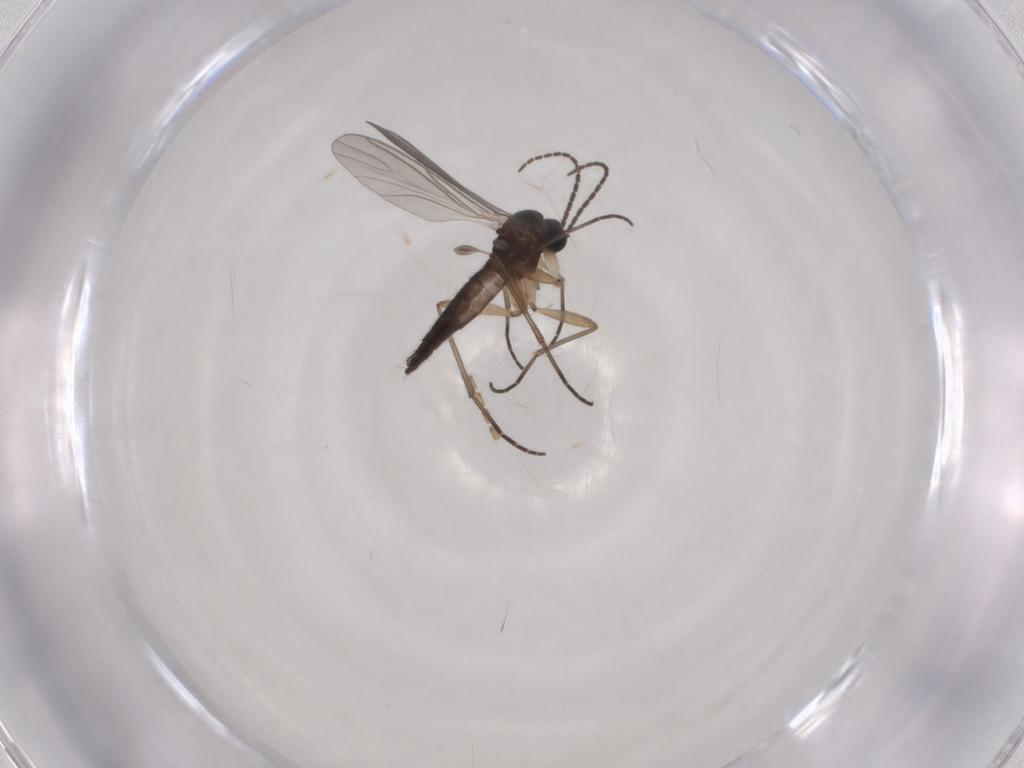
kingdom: Animalia
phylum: Arthropoda
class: Insecta
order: Diptera
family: Sciaridae
